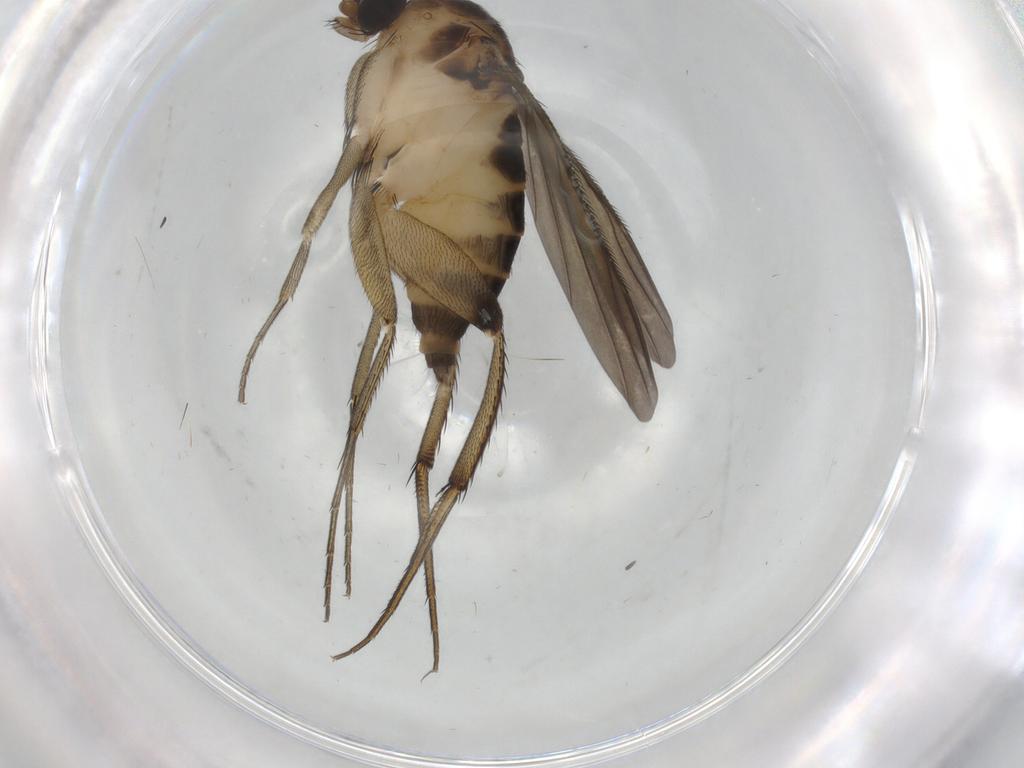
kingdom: Animalia
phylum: Arthropoda
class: Insecta
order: Diptera
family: Phoridae
